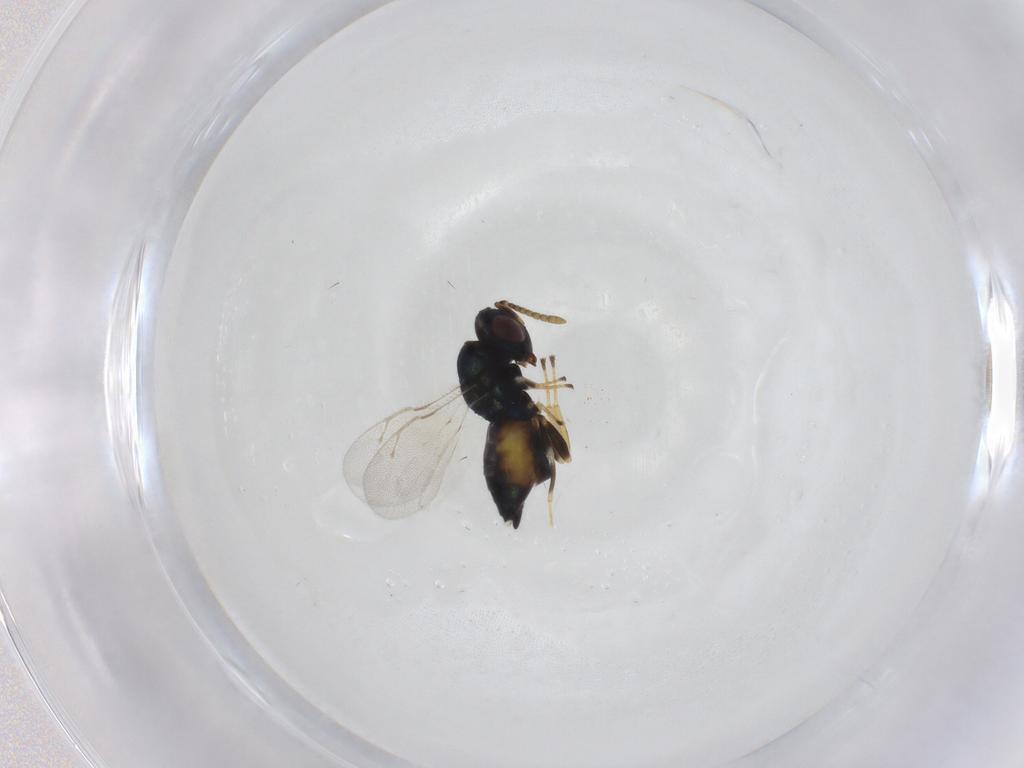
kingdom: Animalia
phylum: Arthropoda
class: Insecta
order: Hymenoptera
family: Pteromalidae
